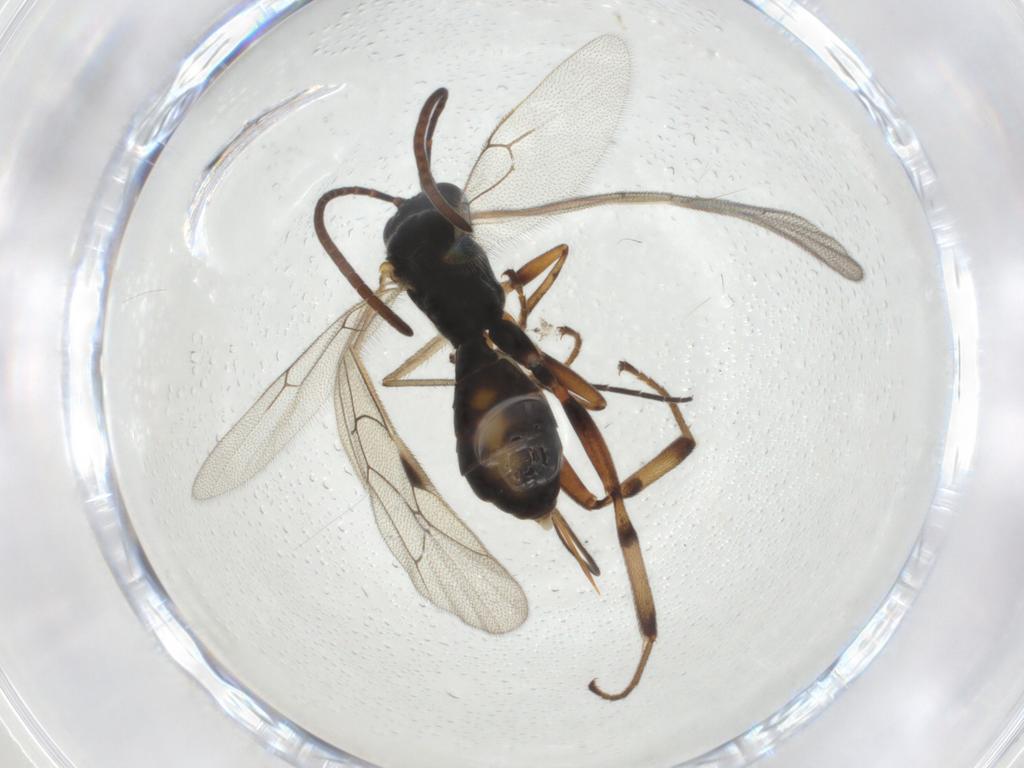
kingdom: Animalia
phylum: Arthropoda
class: Insecta
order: Hymenoptera
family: Ichneumonidae
